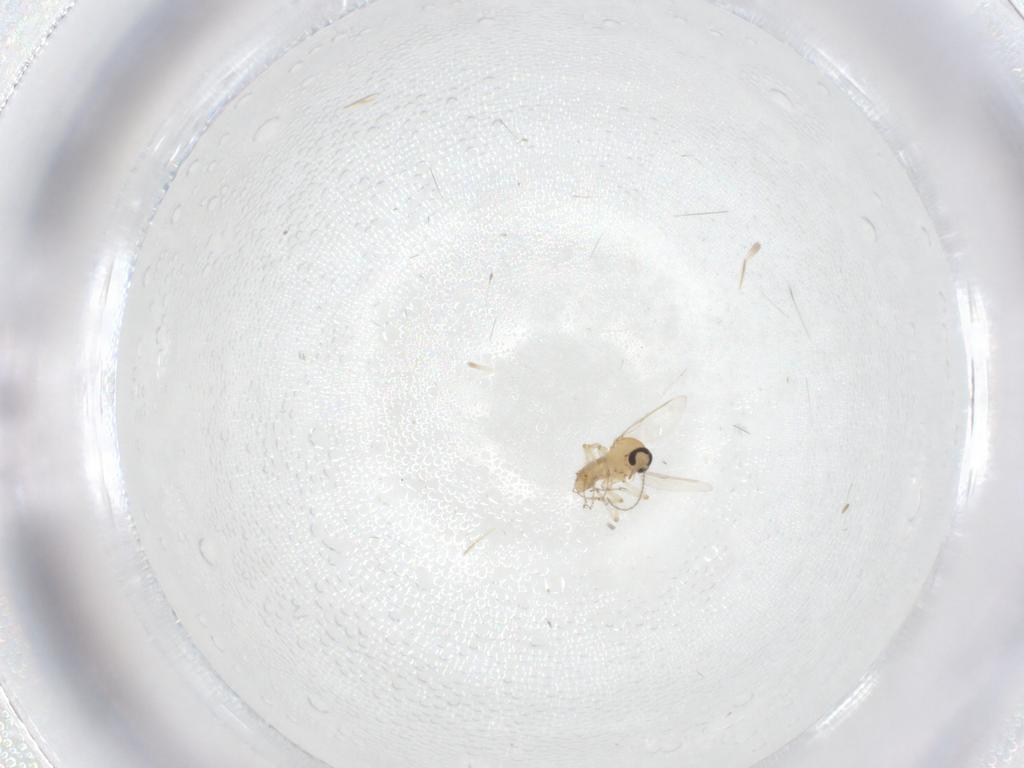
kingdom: Animalia
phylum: Arthropoda
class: Insecta
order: Diptera
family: Ceratopogonidae
